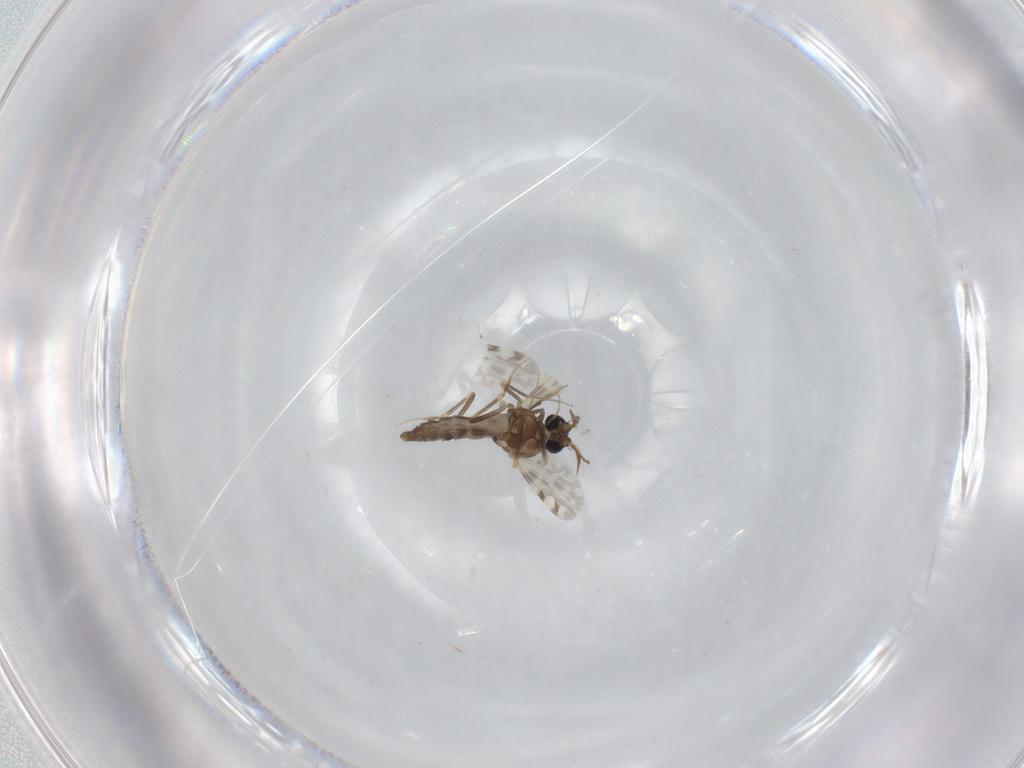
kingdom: Animalia
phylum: Arthropoda
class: Insecta
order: Diptera
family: Ceratopogonidae
